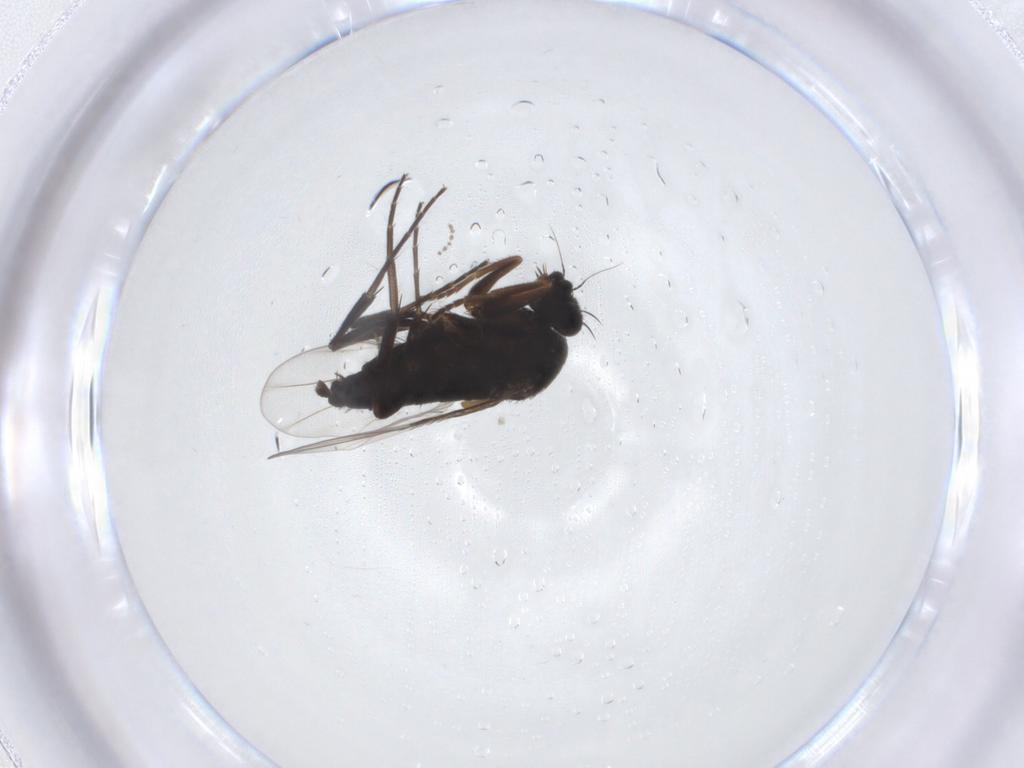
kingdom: Animalia
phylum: Arthropoda
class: Insecta
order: Diptera
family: Phoridae
